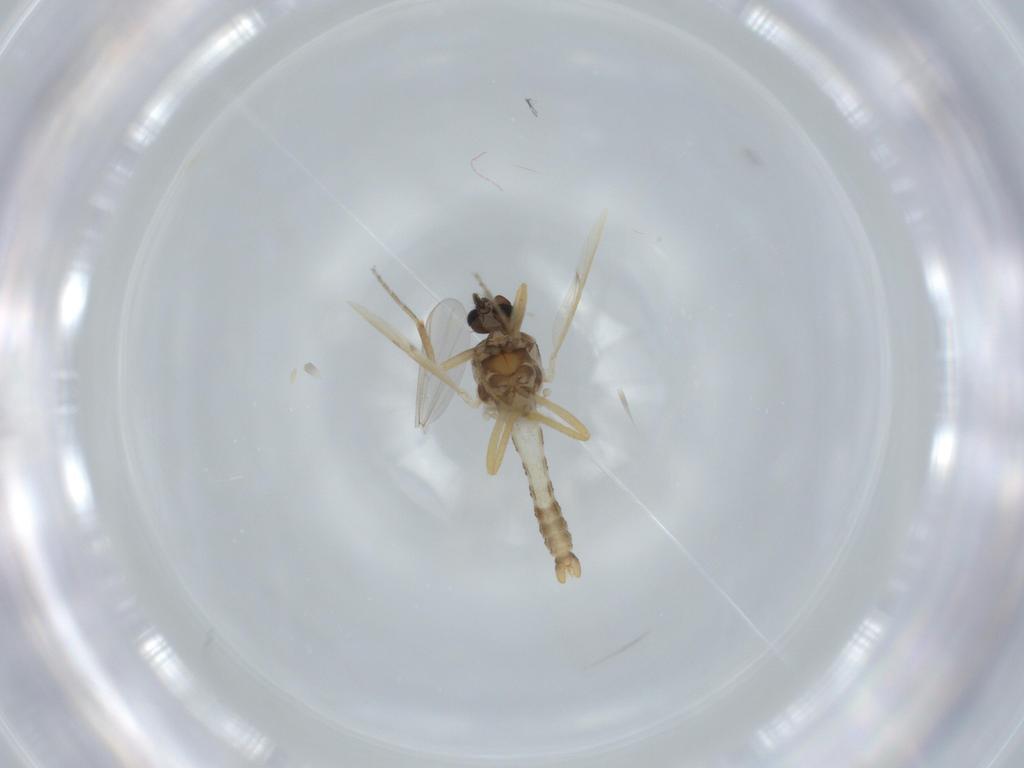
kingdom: Animalia
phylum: Arthropoda
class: Insecta
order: Diptera
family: Ceratopogonidae
